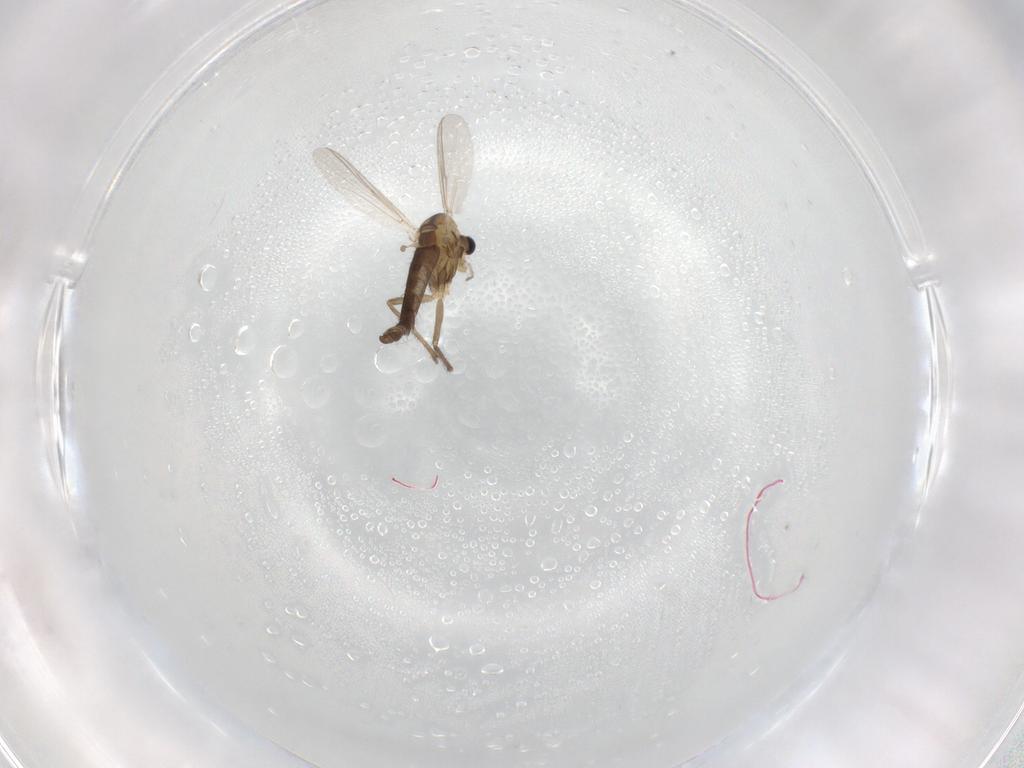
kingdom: Animalia
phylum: Arthropoda
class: Insecta
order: Diptera
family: Chironomidae
